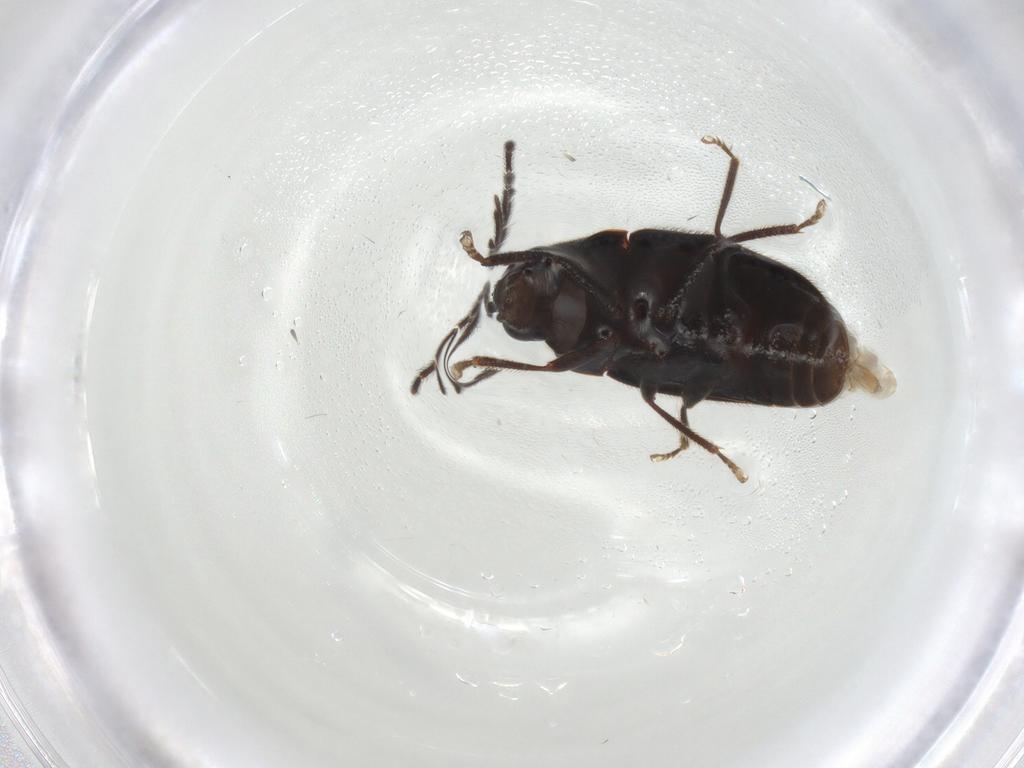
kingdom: Animalia
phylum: Arthropoda
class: Insecta
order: Coleoptera
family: Ptilodactylidae
